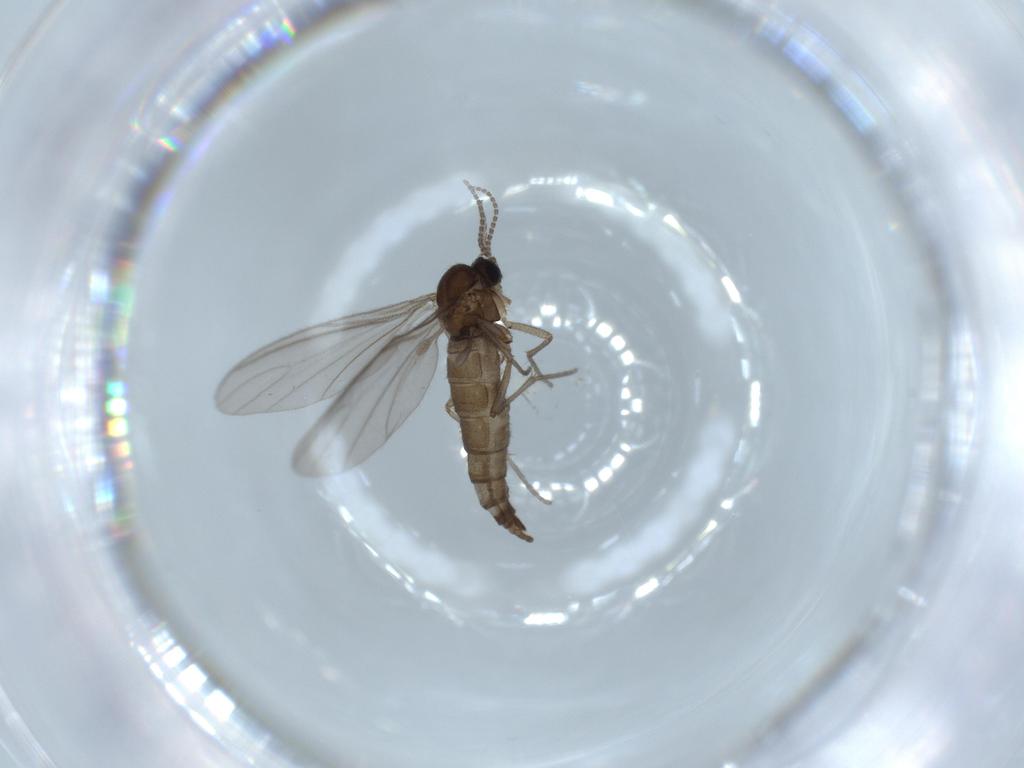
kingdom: Animalia
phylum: Arthropoda
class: Insecta
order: Diptera
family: Sciaridae
